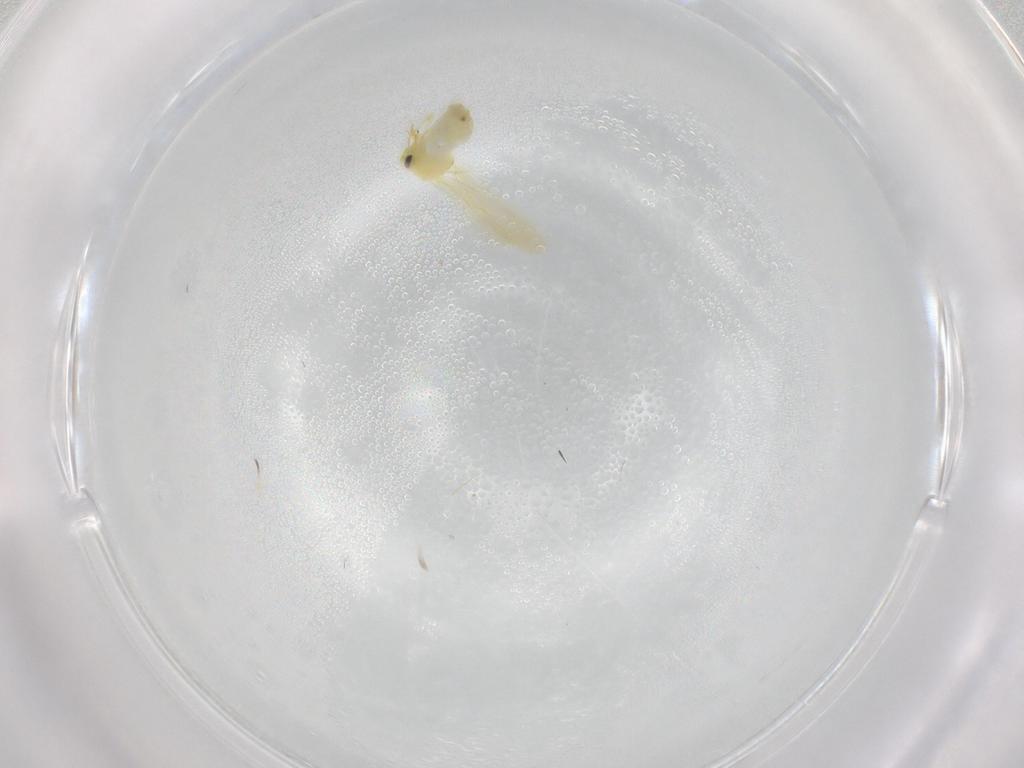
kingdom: Animalia
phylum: Arthropoda
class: Insecta
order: Hemiptera
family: Aleyrodidae
